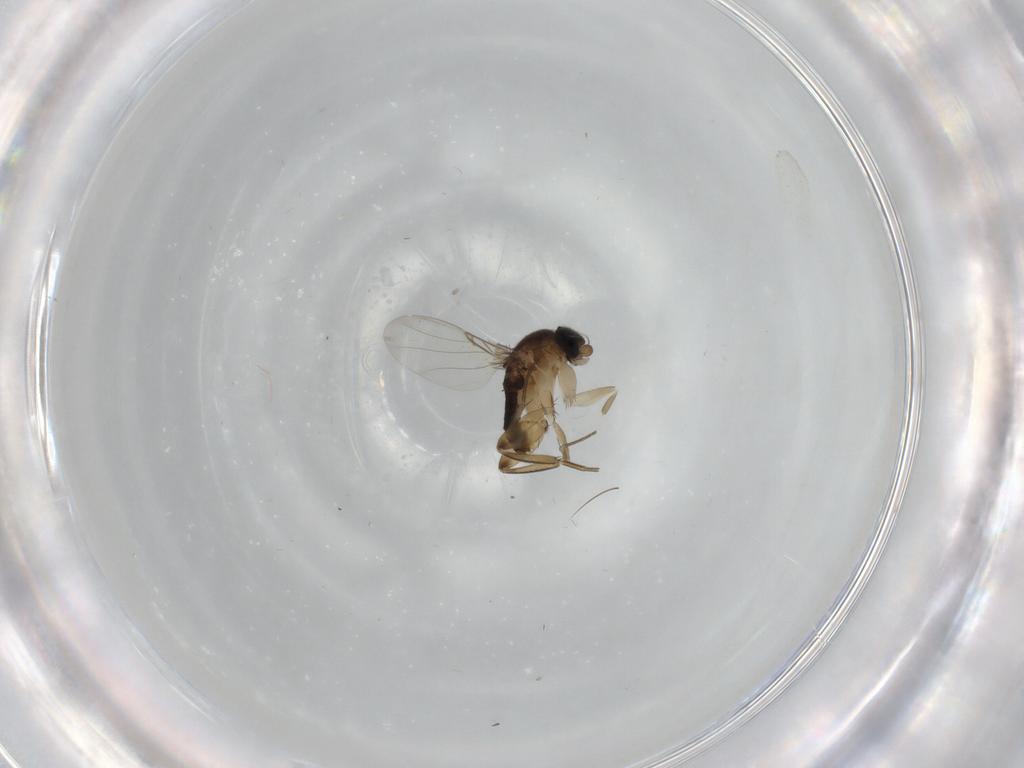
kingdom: Animalia
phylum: Arthropoda
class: Insecta
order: Diptera
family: Phoridae
